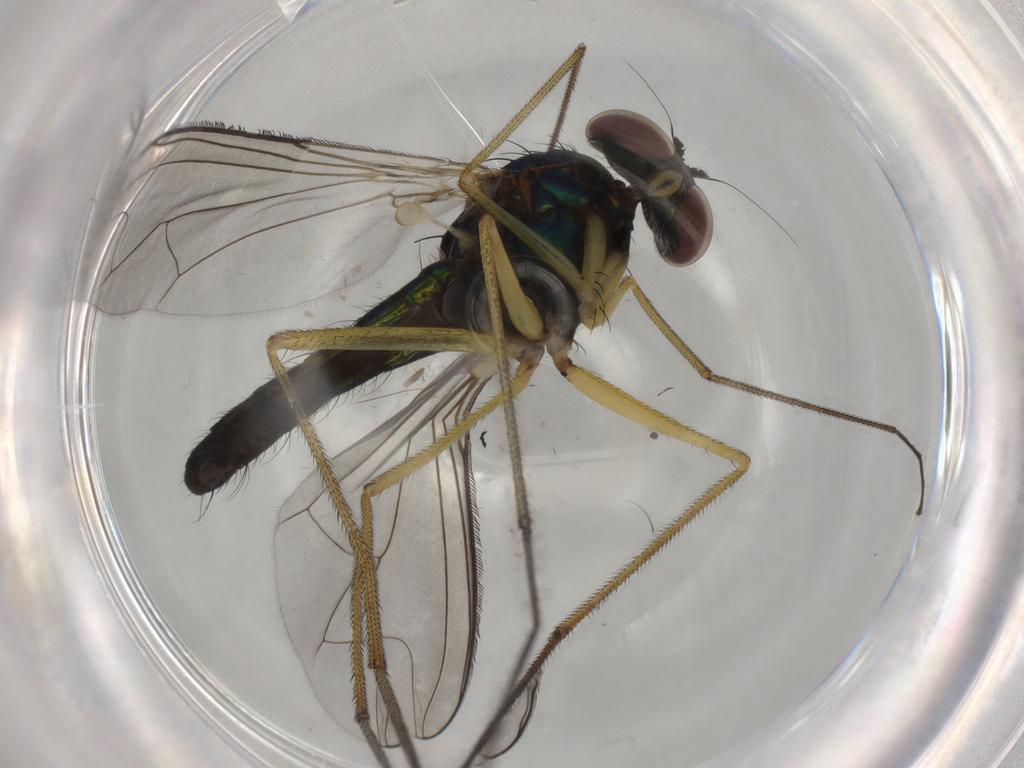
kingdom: Animalia
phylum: Arthropoda
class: Insecta
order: Diptera
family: Dolichopodidae
